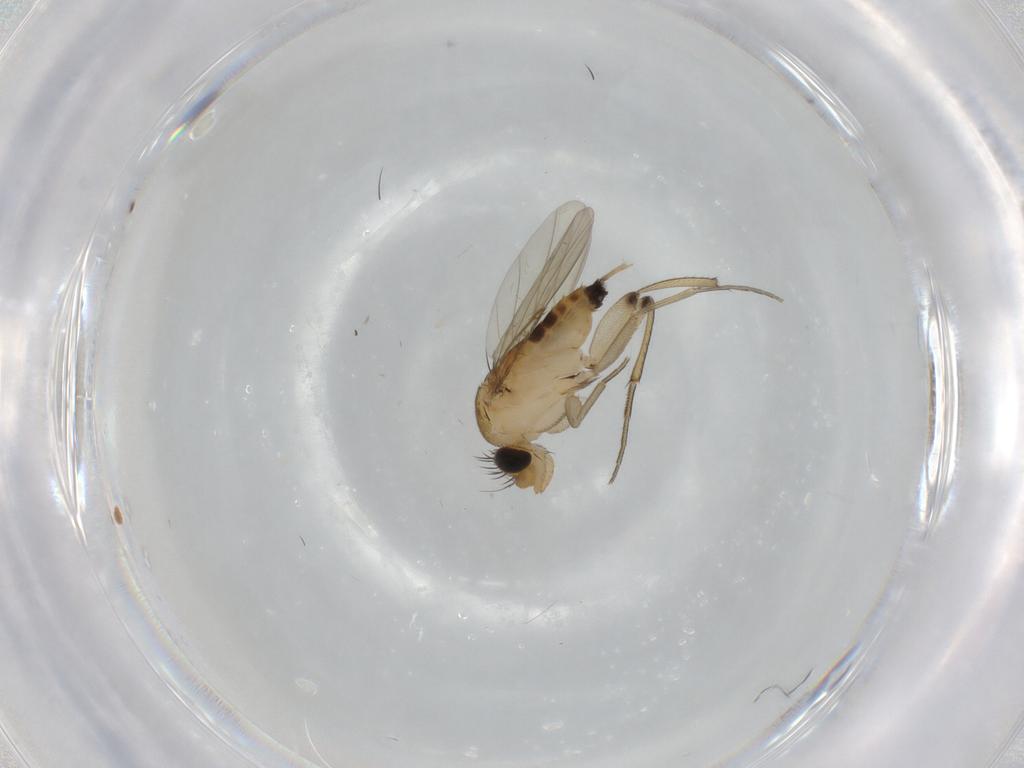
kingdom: Animalia
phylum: Arthropoda
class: Insecta
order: Diptera
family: Phoridae
